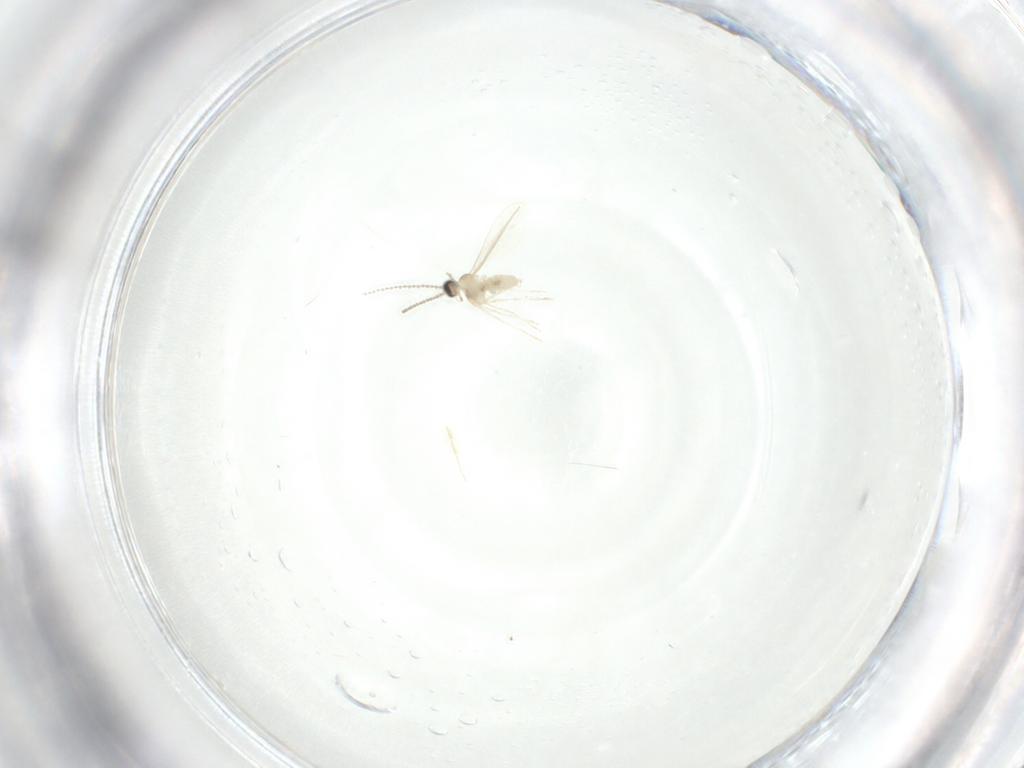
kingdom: Animalia
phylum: Arthropoda
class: Insecta
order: Diptera
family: Cecidomyiidae
